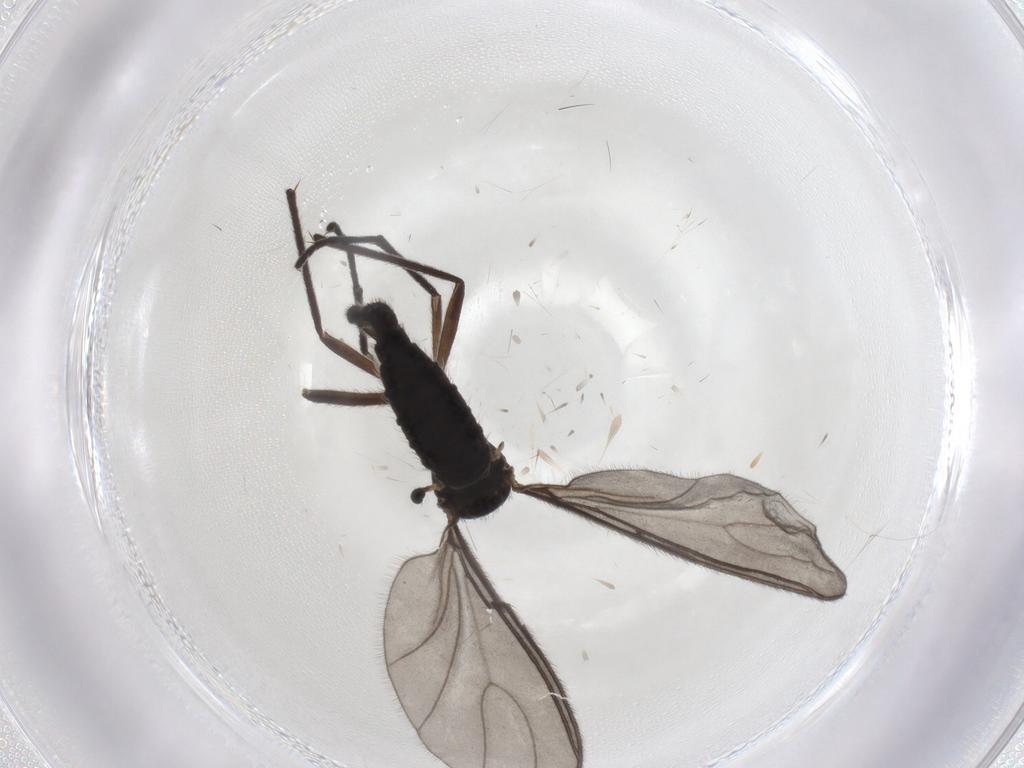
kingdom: Animalia
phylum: Arthropoda
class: Insecta
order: Diptera
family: Sciaridae
